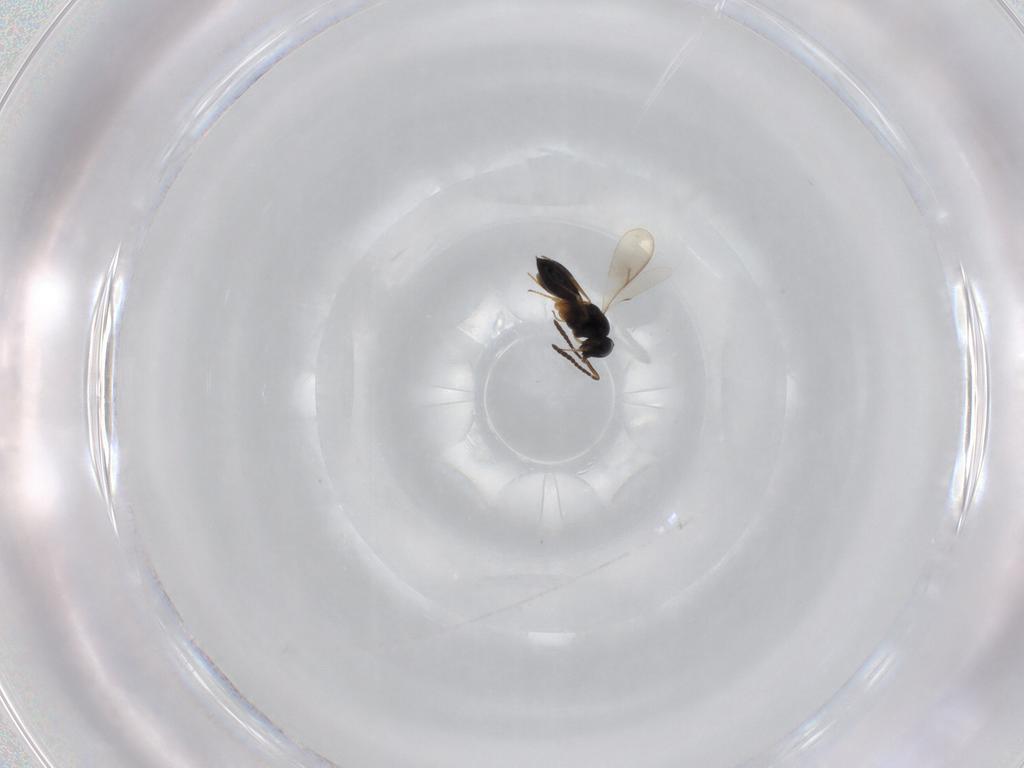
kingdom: Animalia
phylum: Arthropoda
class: Insecta
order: Hymenoptera
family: Scelionidae
